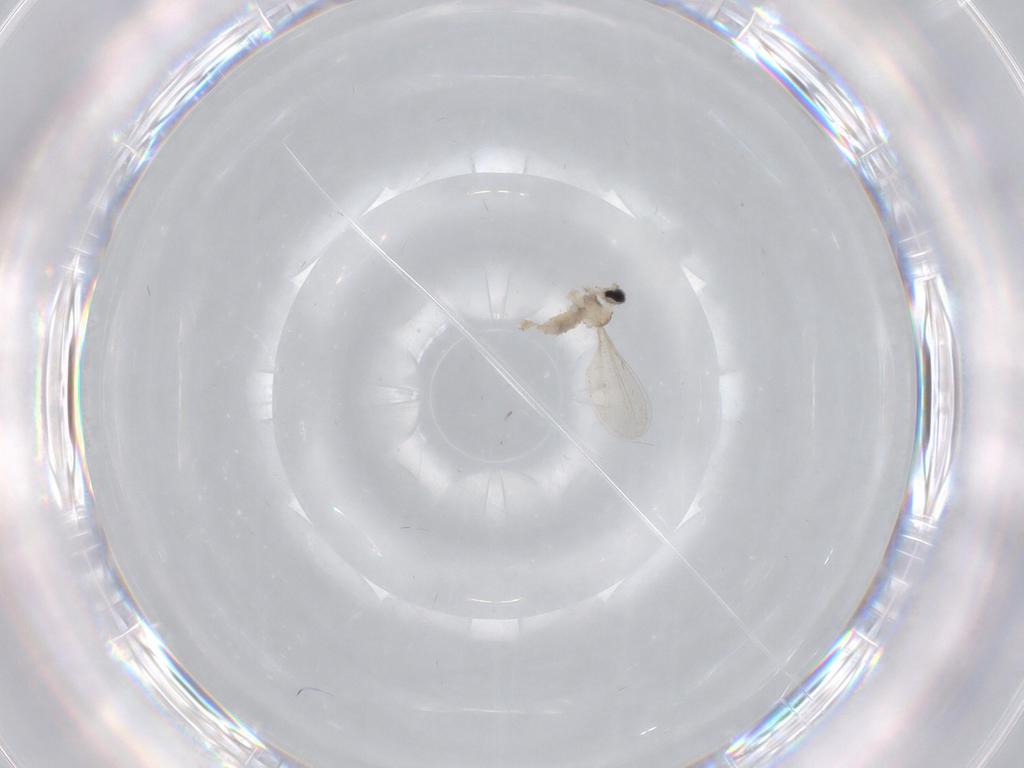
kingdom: Animalia
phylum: Arthropoda
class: Insecta
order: Diptera
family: Cecidomyiidae
